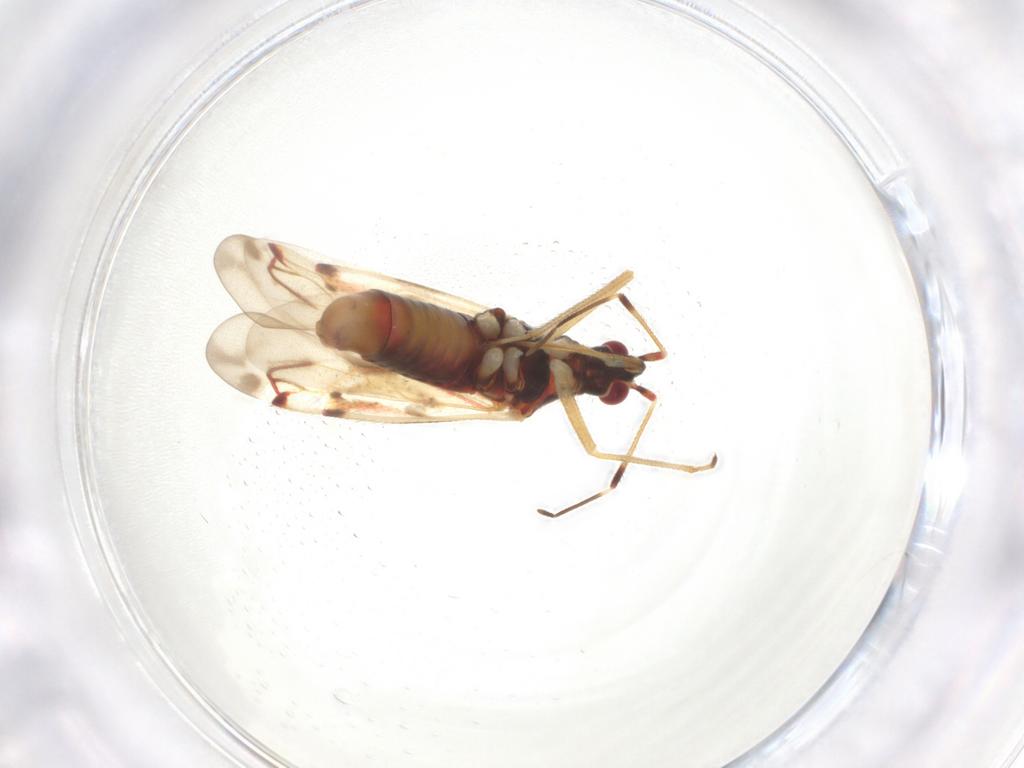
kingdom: Animalia
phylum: Arthropoda
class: Insecta
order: Hemiptera
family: Miridae
